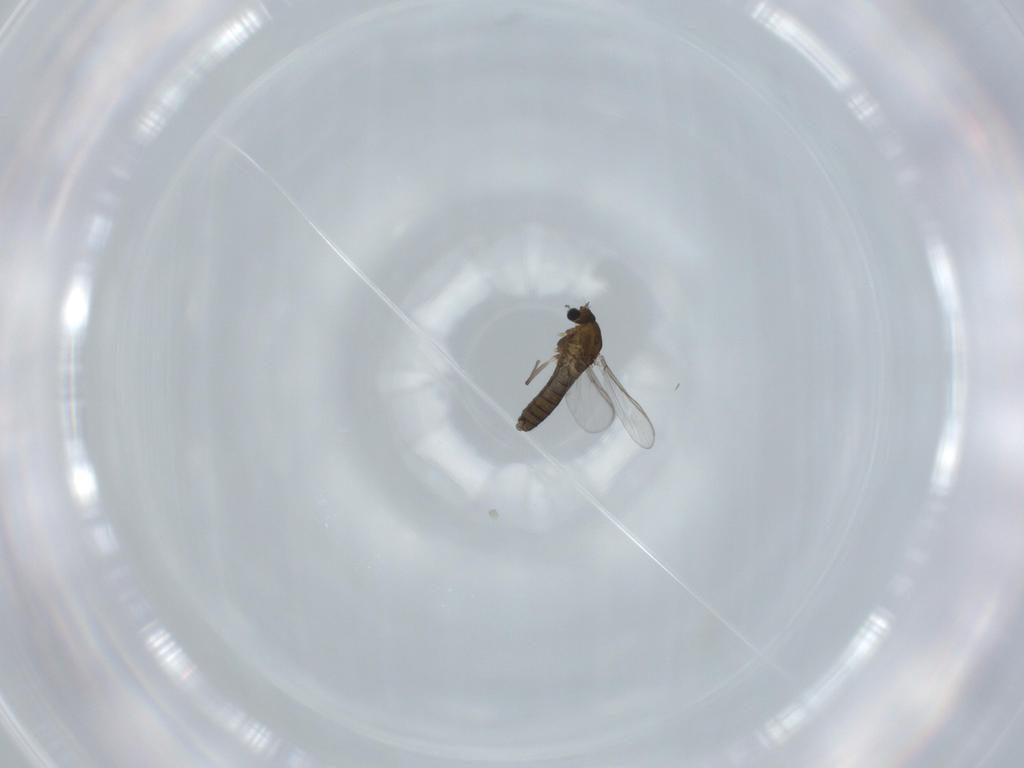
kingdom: Animalia
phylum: Arthropoda
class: Insecta
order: Diptera
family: Chironomidae
